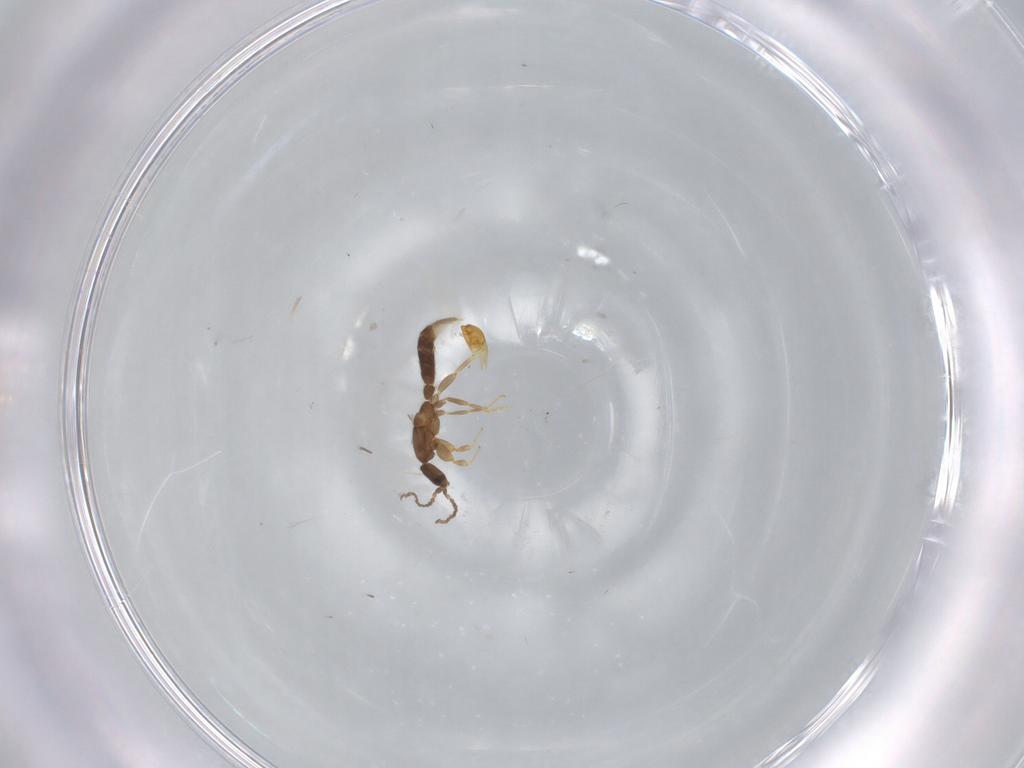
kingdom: Animalia
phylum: Arthropoda
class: Insecta
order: Hymenoptera
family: Formicidae
